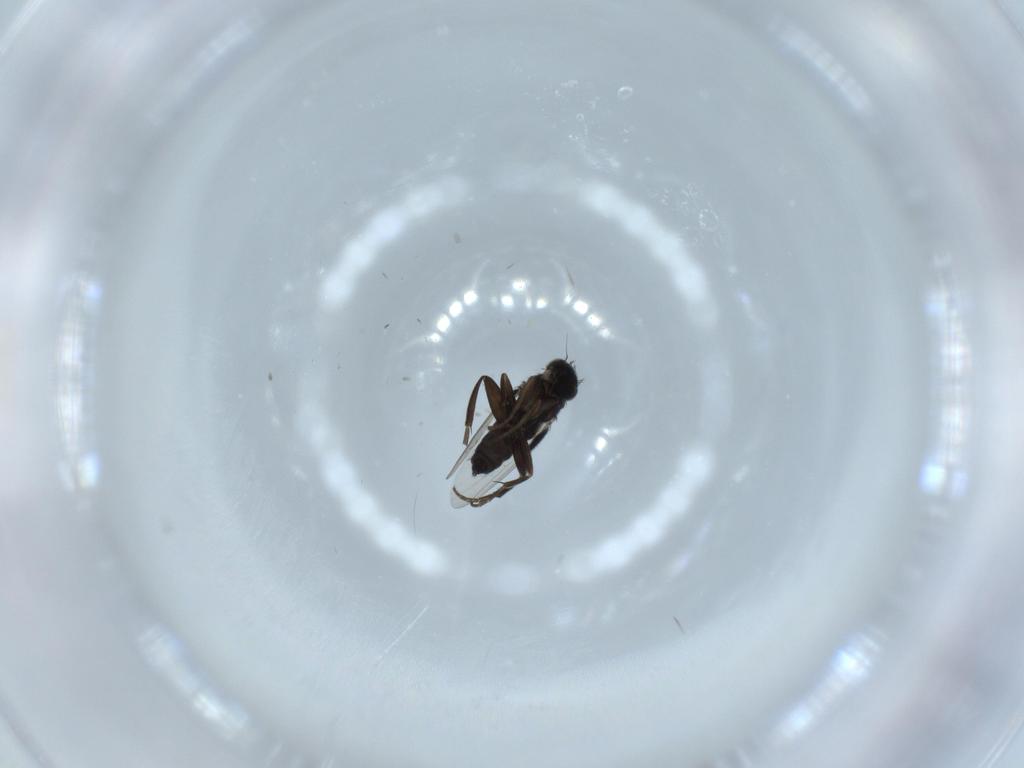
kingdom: Animalia
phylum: Arthropoda
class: Insecta
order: Diptera
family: Phoridae
